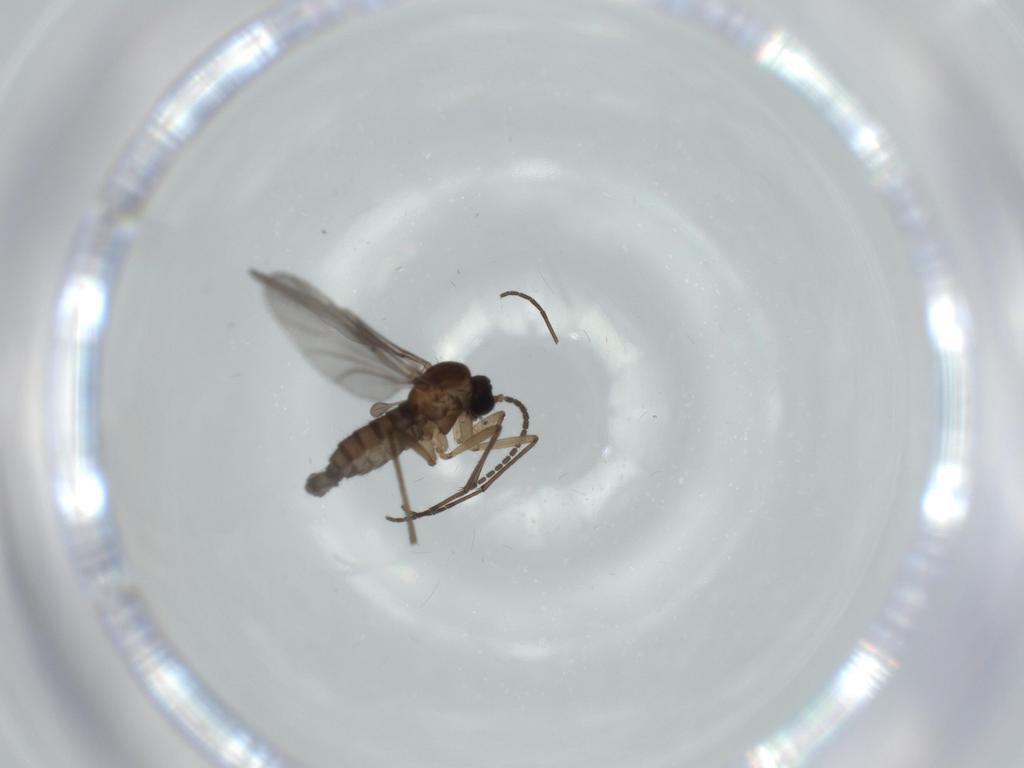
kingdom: Animalia
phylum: Arthropoda
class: Insecta
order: Diptera
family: Sciaridae
